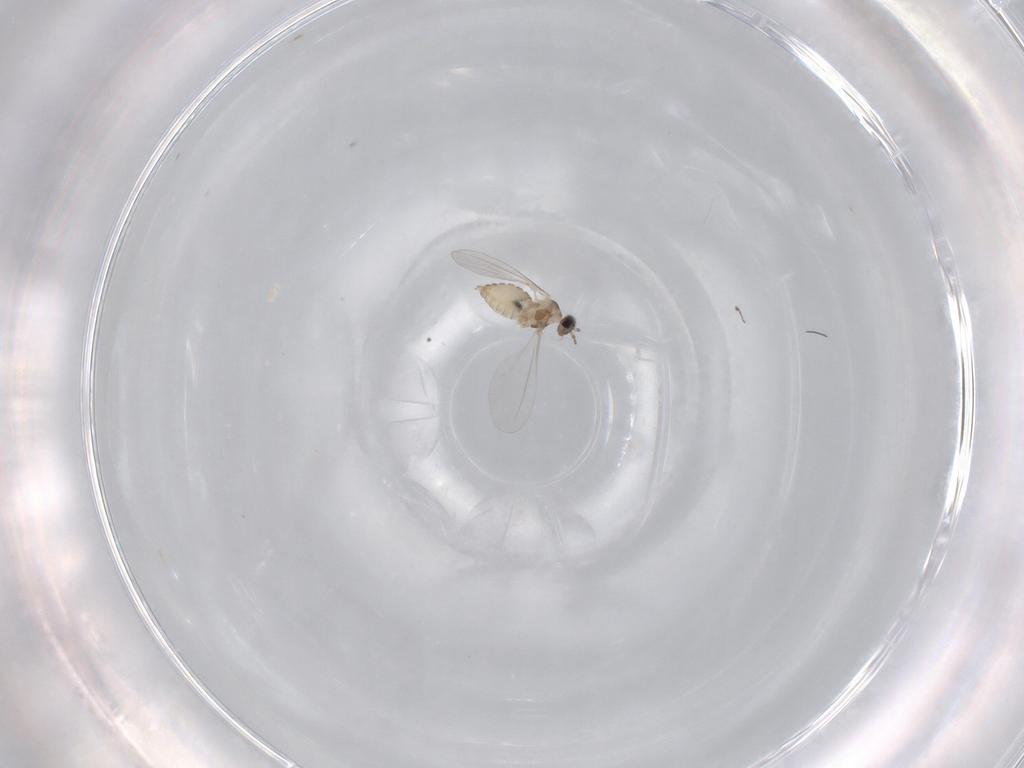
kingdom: Animalia
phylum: Arthropoda
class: Insecta
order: Diptera
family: Cecidomyiidae
